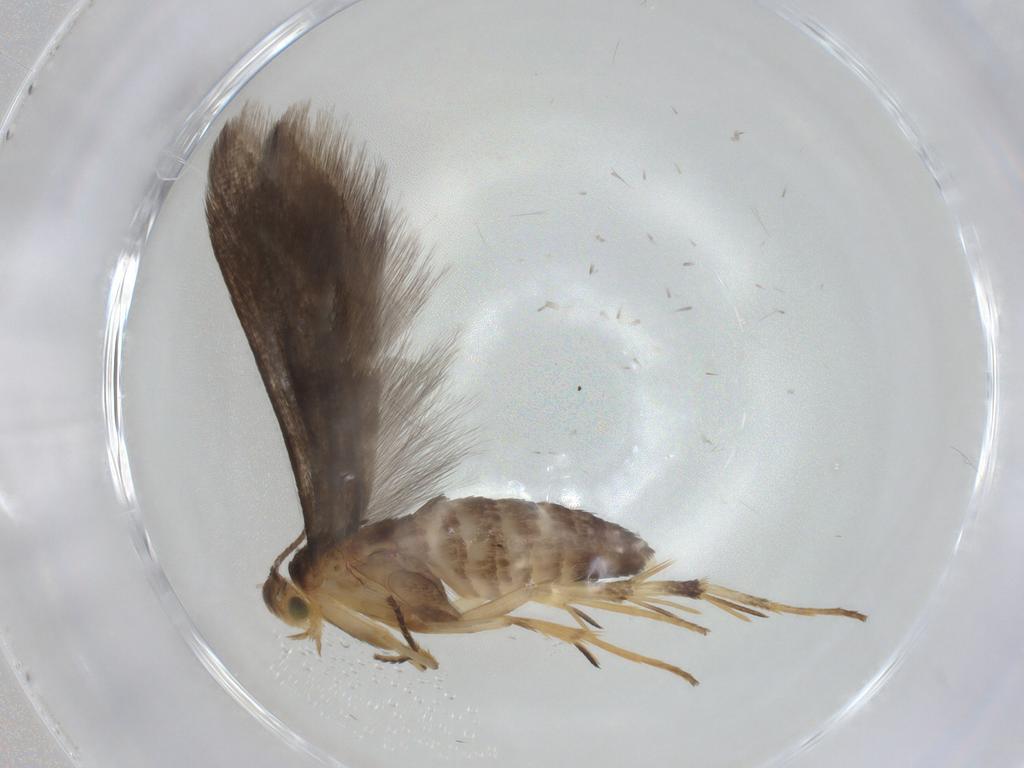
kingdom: Animalia
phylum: Arthropoda
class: Insecta
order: Lepidoptera
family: Oecophoridae
